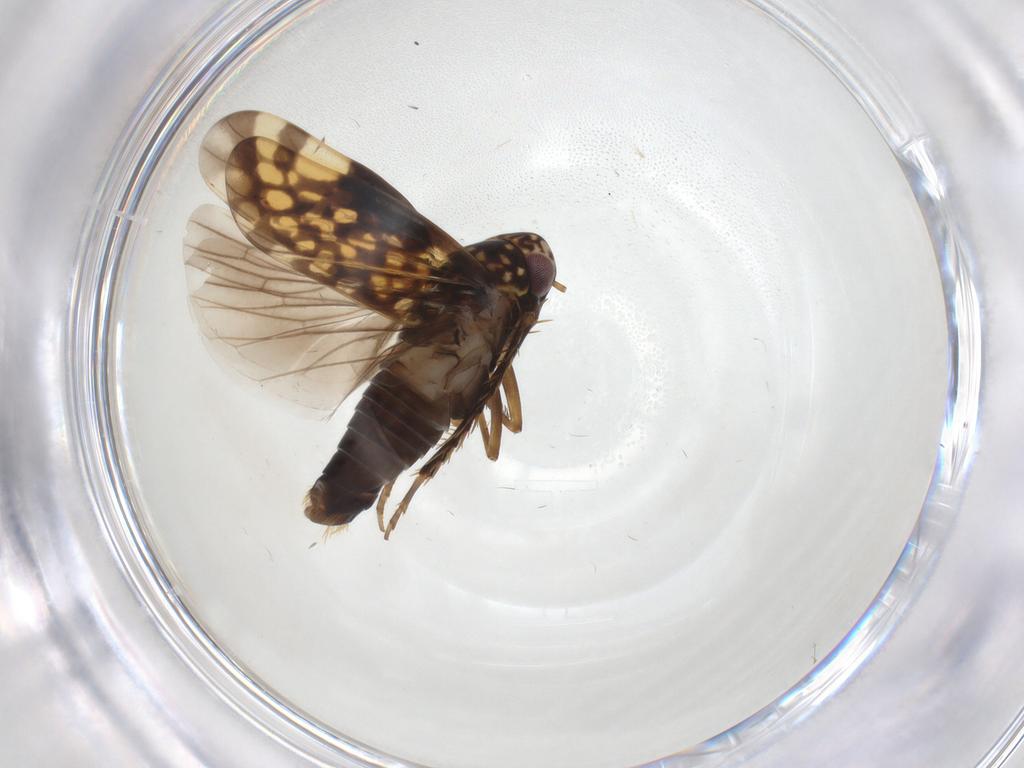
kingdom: Animalia
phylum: Arthropoda
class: Insecta
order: Hemiptera
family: Cicadellidae
